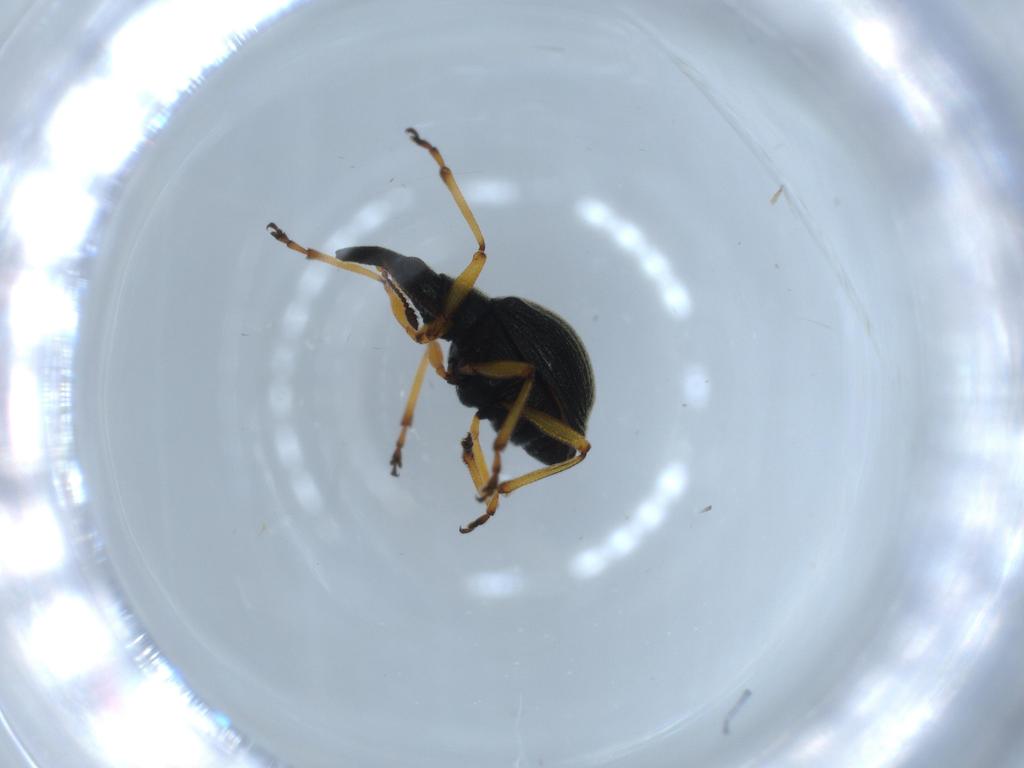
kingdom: Animalia
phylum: Arthropoda
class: Insecta
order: Coleoptera
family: Brentidae
